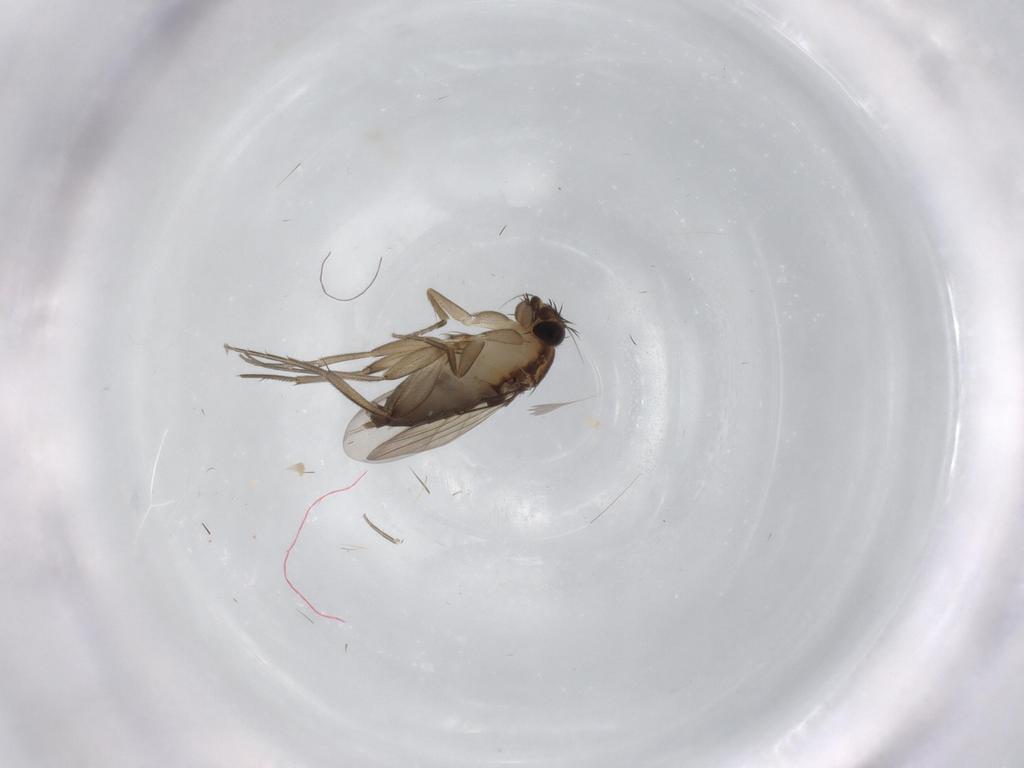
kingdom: Animalia
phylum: Arthropoda
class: Insecta
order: Diptera
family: Phoridae
